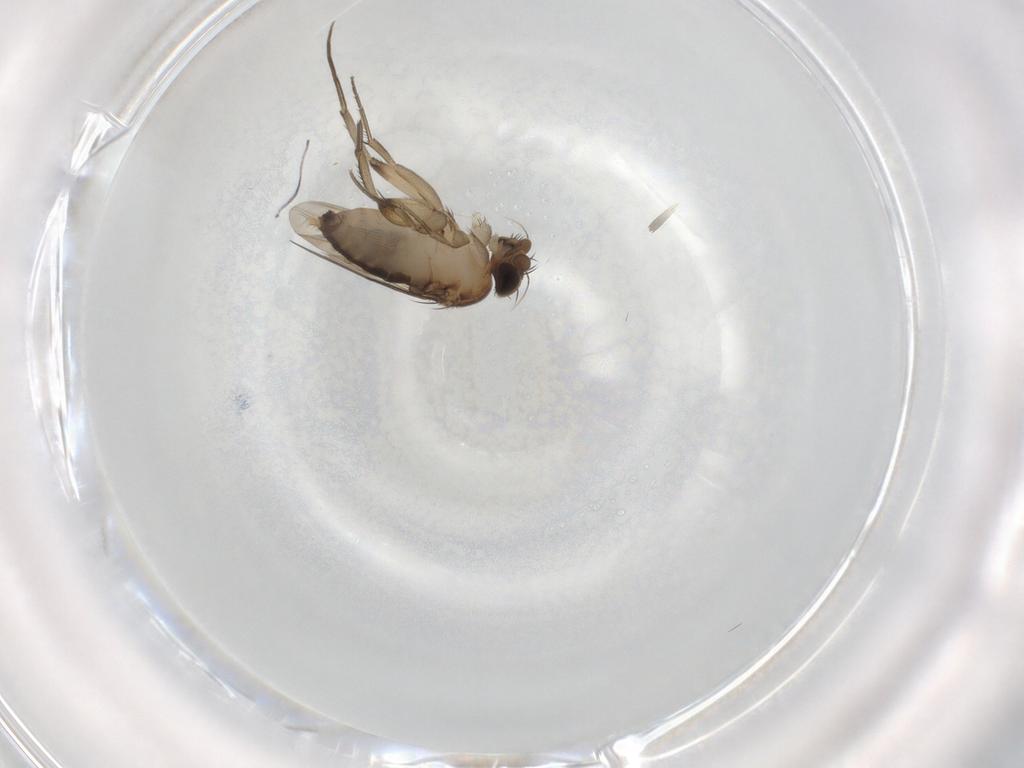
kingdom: Animalia
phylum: Arthropoda
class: Insecta
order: Diptera
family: Phoridae
